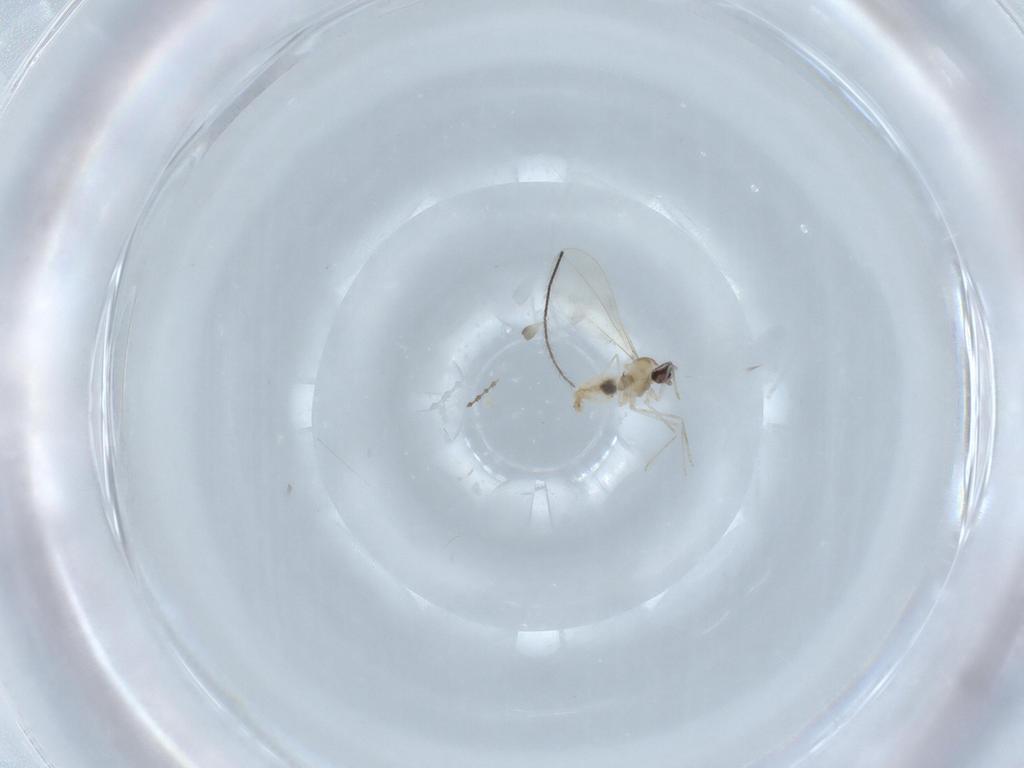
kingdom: Animalia
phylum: Arthropoda
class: Insecta
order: Diptera
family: Cecidomyiidae
